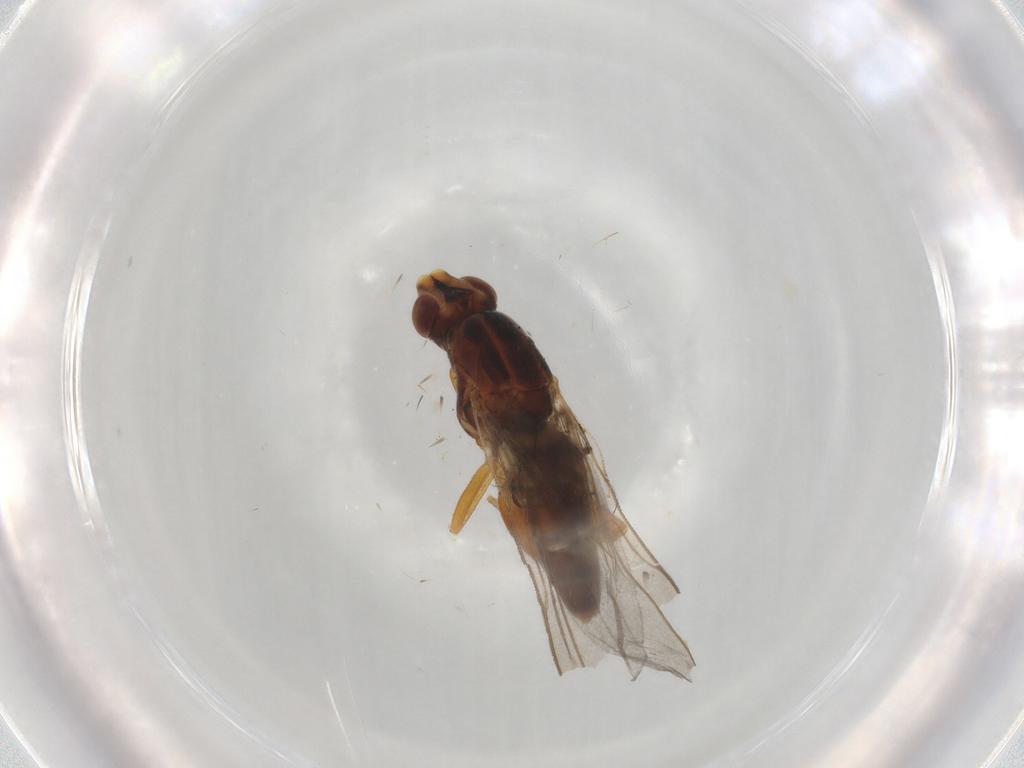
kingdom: Animalia
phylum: Arthropoda
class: Insecta
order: Diptera
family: Chloropidae
